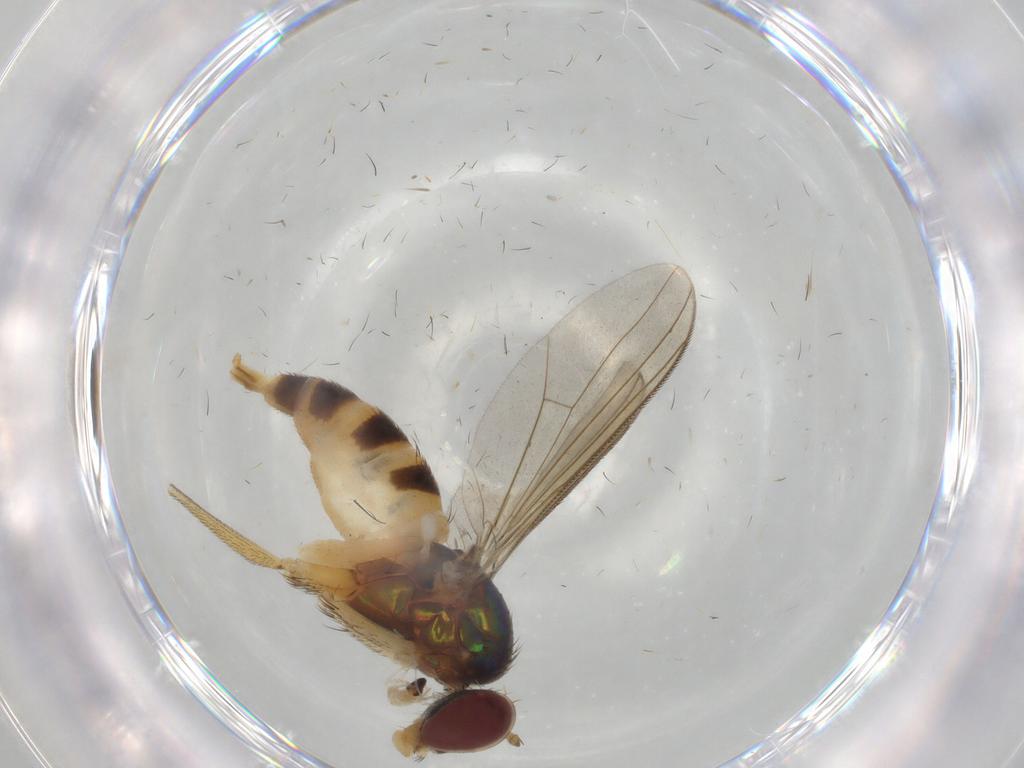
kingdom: Animalia
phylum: Arthropoda
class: Insecta
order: Diptera
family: Dolichopodidae
